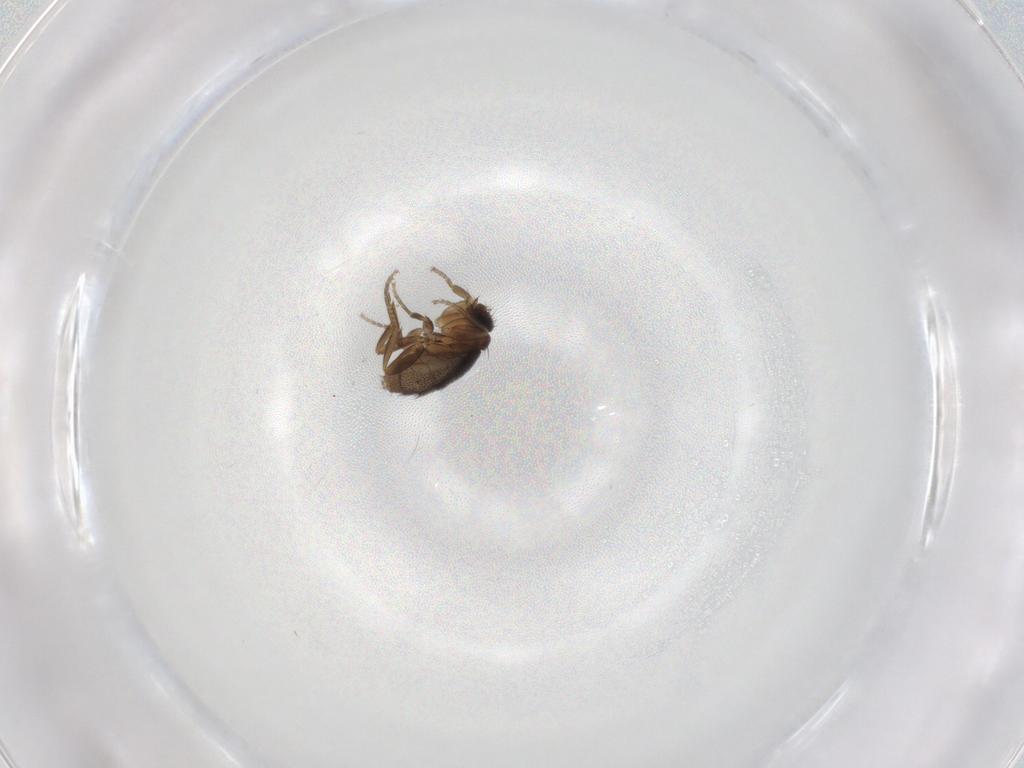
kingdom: Animalia
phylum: Arthropoda
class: Insecta
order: Diptera
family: Phoridae
